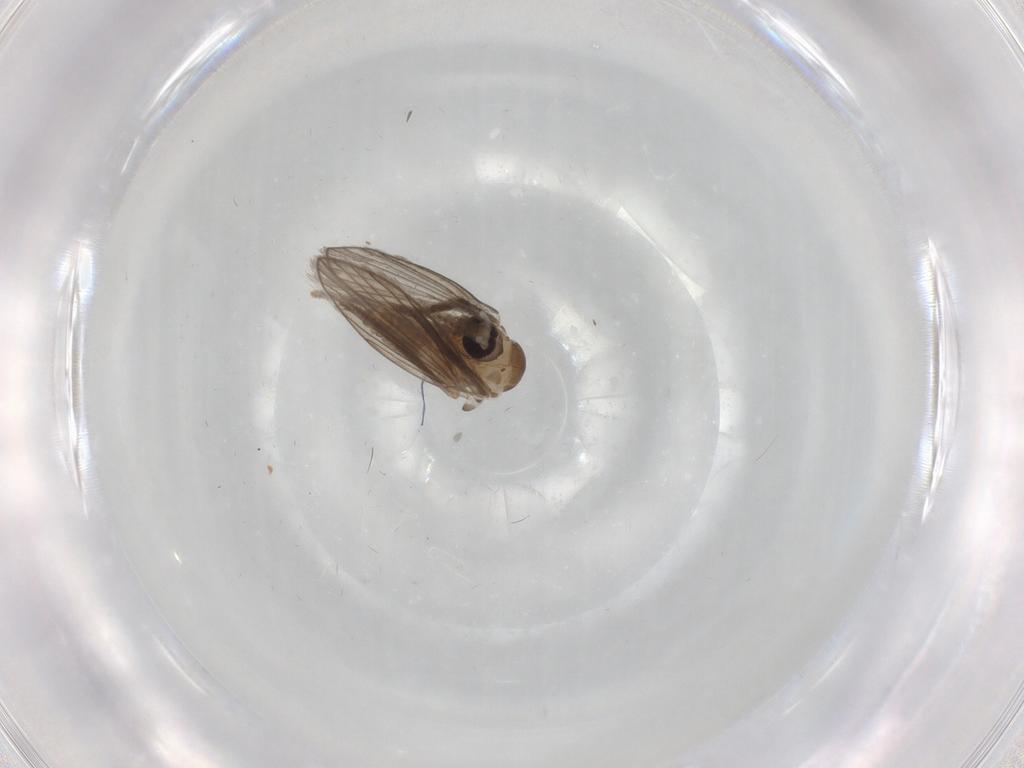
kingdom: Animalia
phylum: Arthropoda
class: Insecta
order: Diptera
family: Psychodidae
